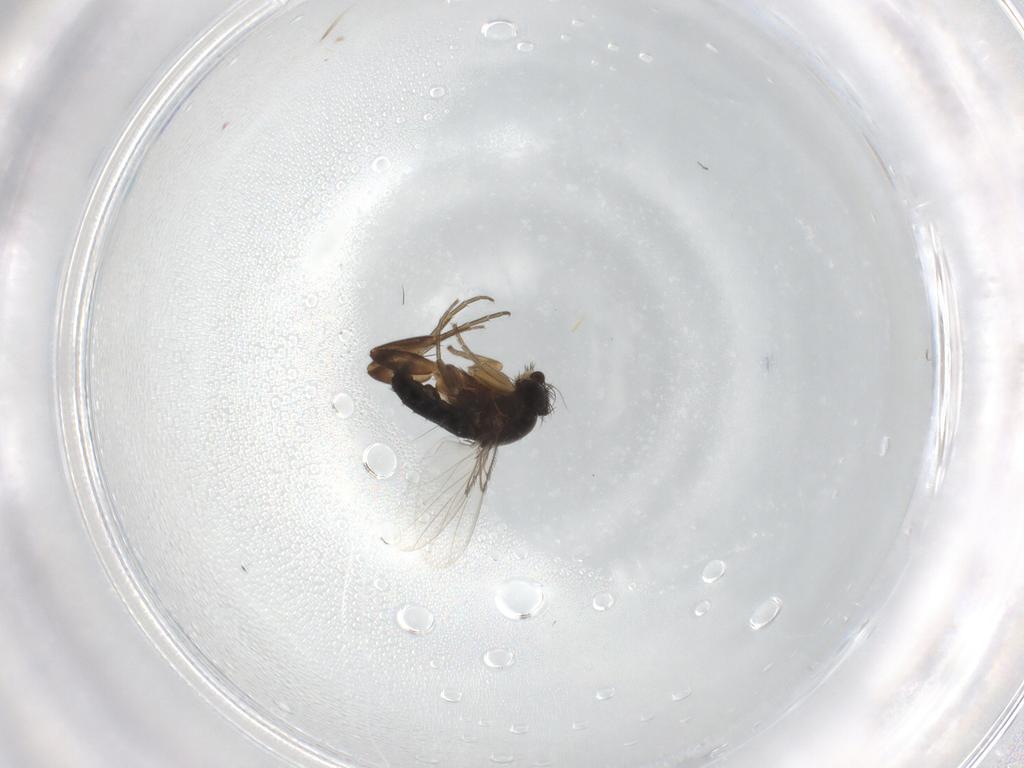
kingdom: Animalia
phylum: Arthropoda
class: Insecta
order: Diptera
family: Phoridae
